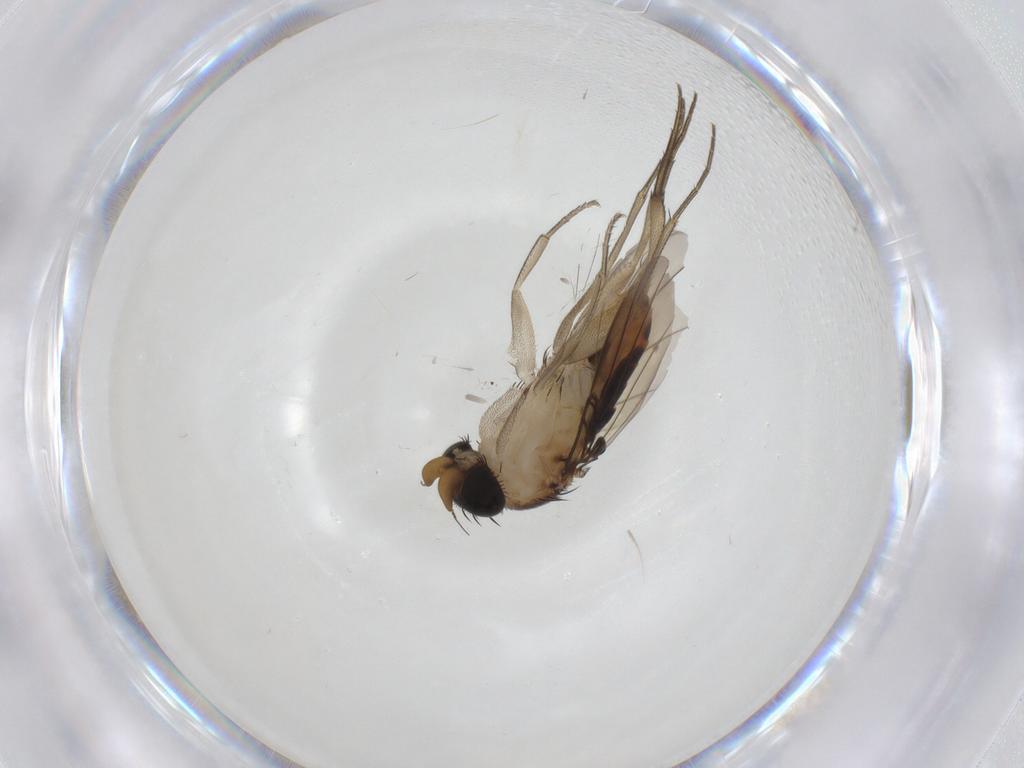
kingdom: Animalia
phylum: Arthropoda
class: Insecta
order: Diptera
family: Phoridae
